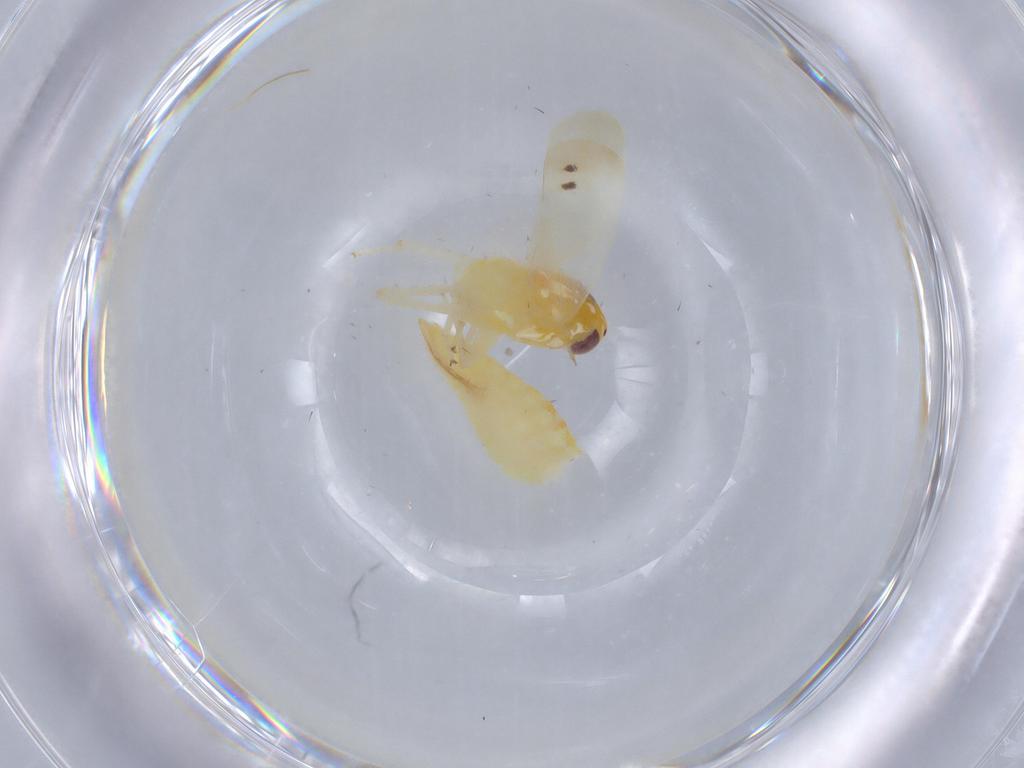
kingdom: Animalia
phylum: Arthropoda
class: Insecta
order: Hemiptera
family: Cicadellidae
